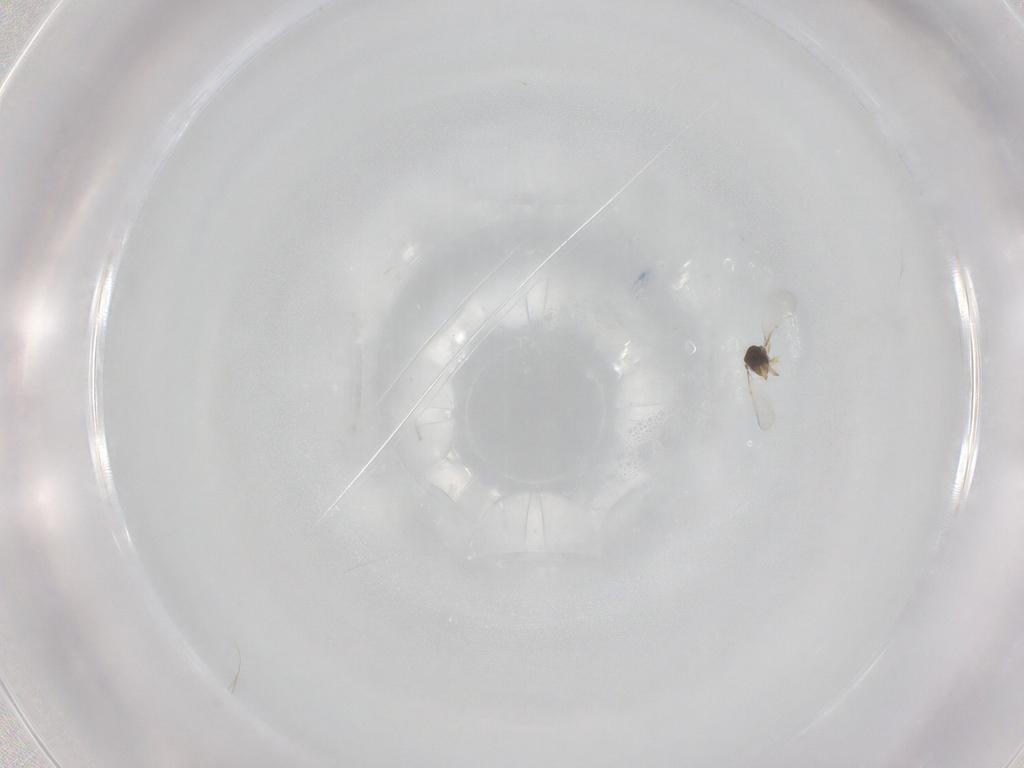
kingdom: Animalia
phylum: Arthropoda
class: Insecta
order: Hymenoptera
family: Encyrtidae
